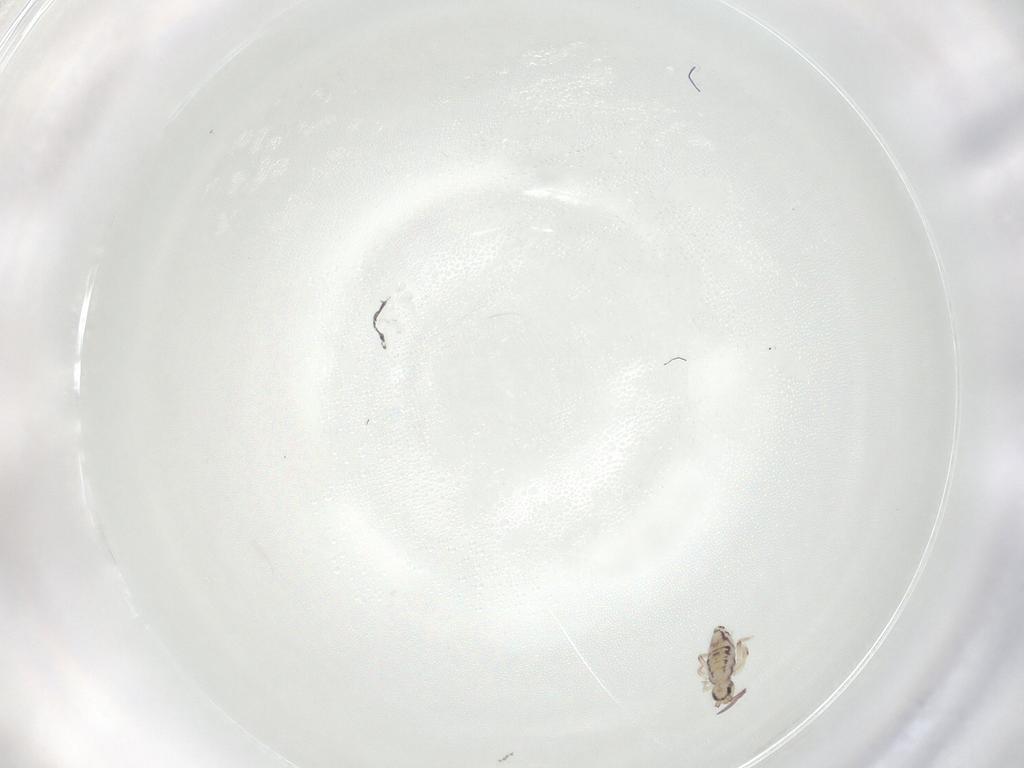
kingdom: Animalia
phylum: Arthropoda
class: Collembola
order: Entomobryomorpha
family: Entomobryidae
